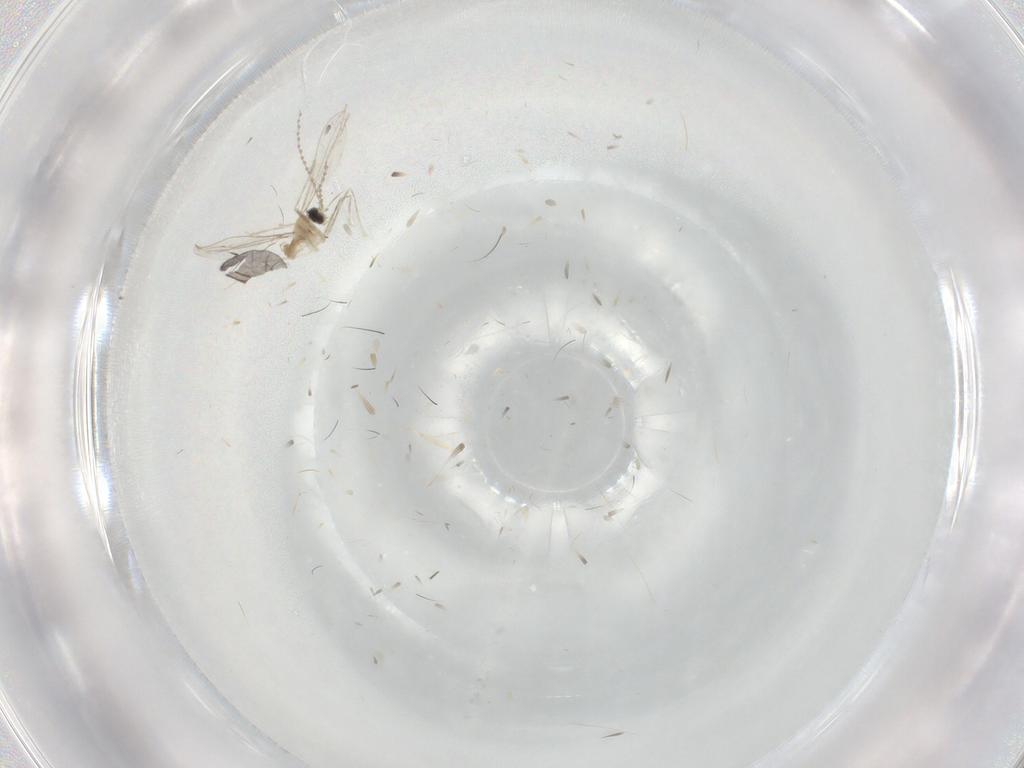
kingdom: Animalia
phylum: Arthropoda
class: Insecta
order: Diptera
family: Cecidomyiidae
